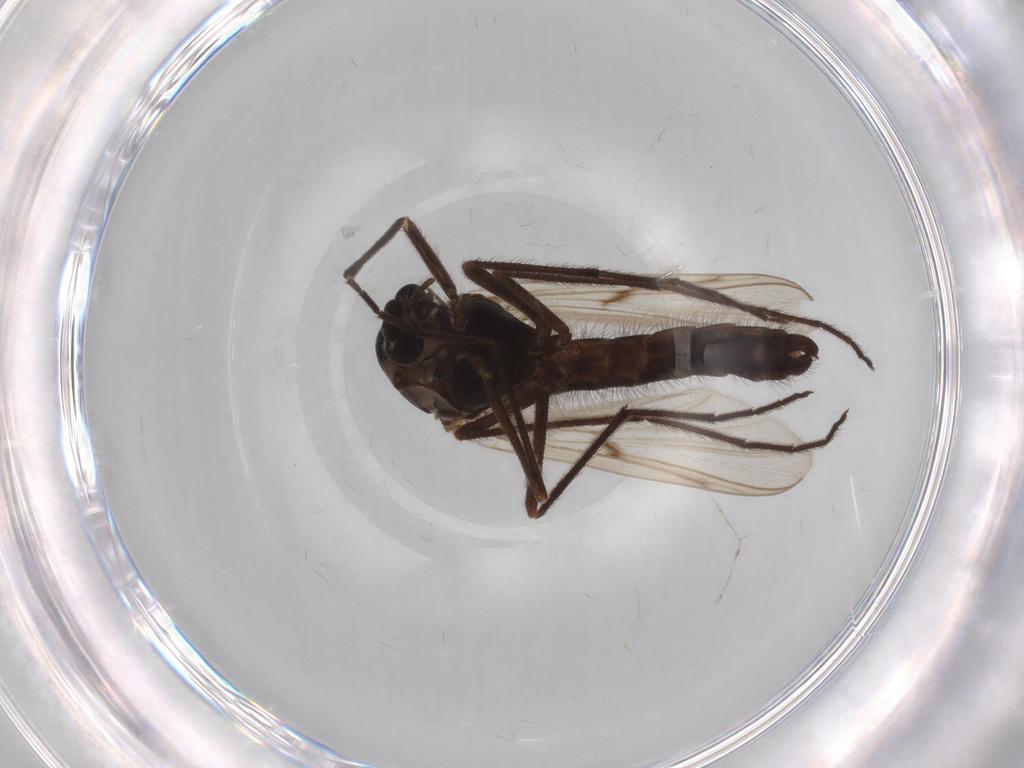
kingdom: Animalia
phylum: Arthropoda
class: Insecta
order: Diptera
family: Chironomidae
